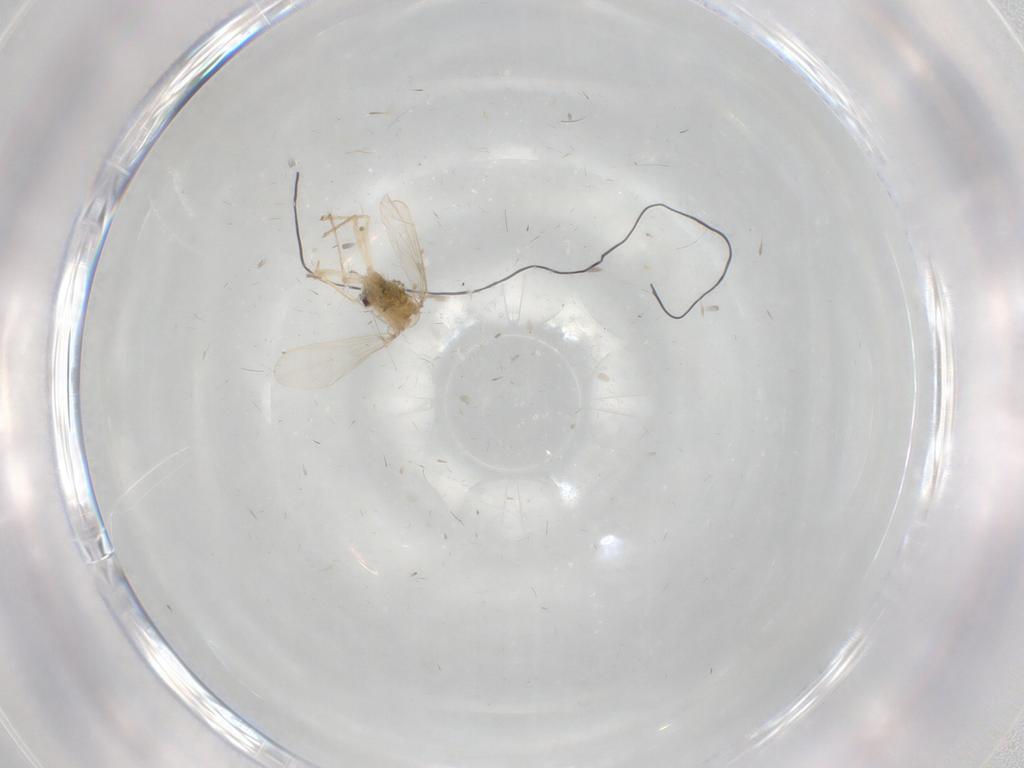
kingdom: Animalia
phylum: Arthropoda
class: Insecta
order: Diptera
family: Chironomidae
